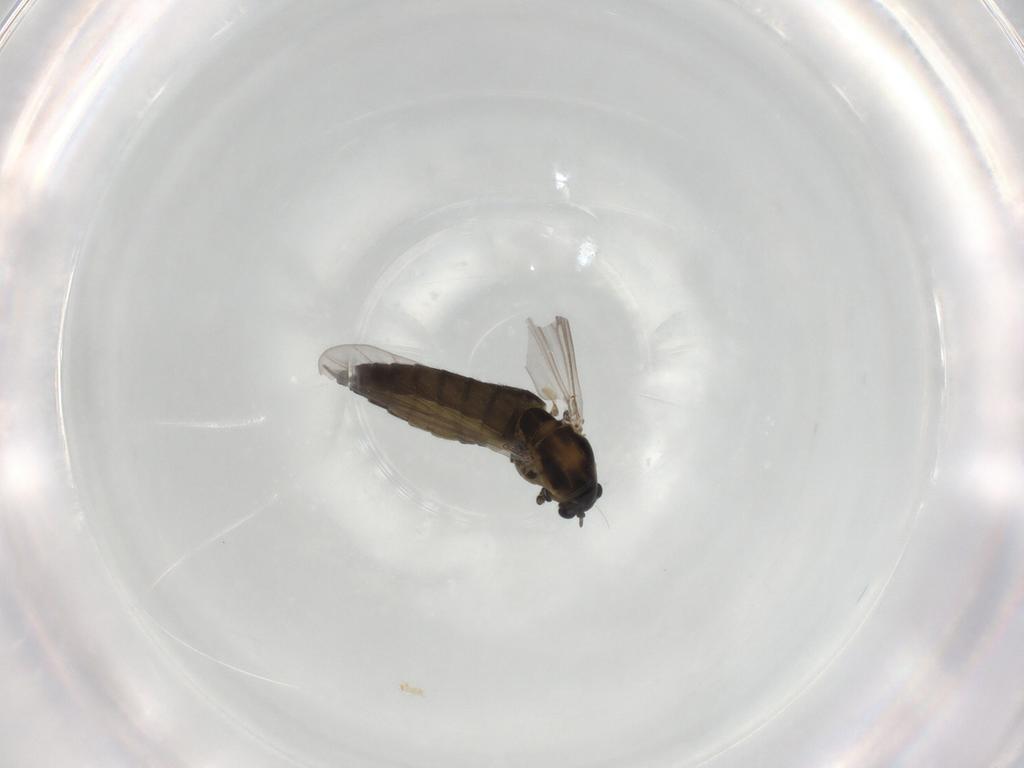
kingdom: Animalia
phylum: Arthropoda
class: Insecta
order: Diptera
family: Chironomidae
